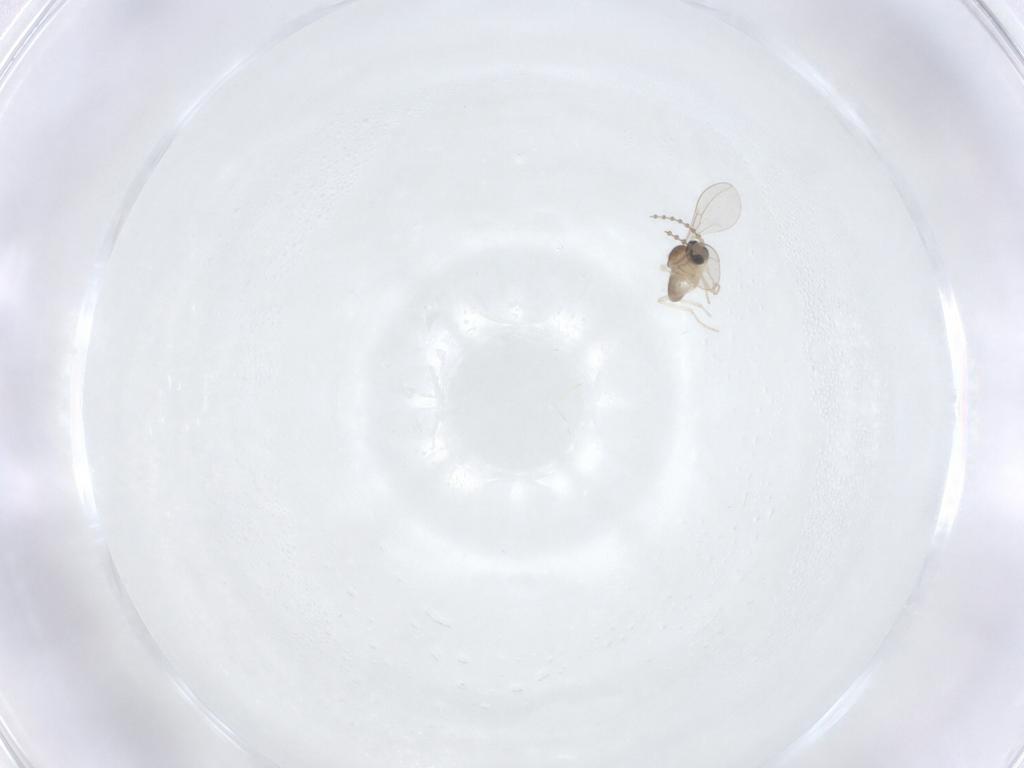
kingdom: Animalia
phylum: Arthropoda
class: Insecta
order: Diptera
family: Cecidomyiidae
